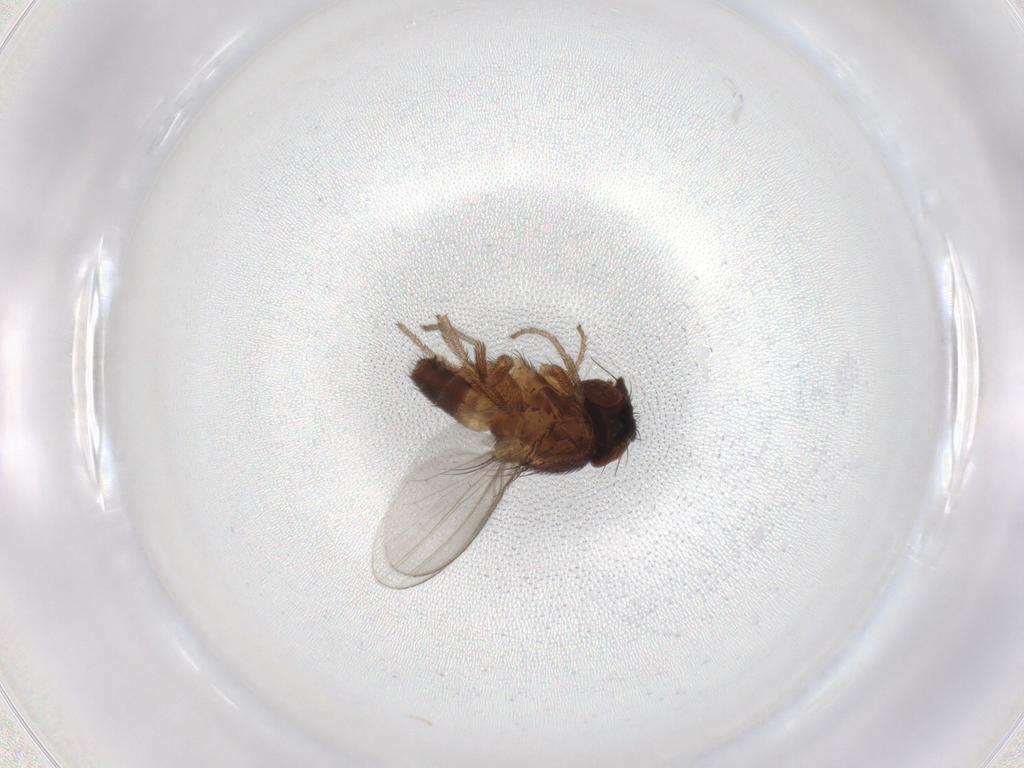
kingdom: Animalia
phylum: Arthropoda
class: Insecta
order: Diptera
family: Milichiidae
